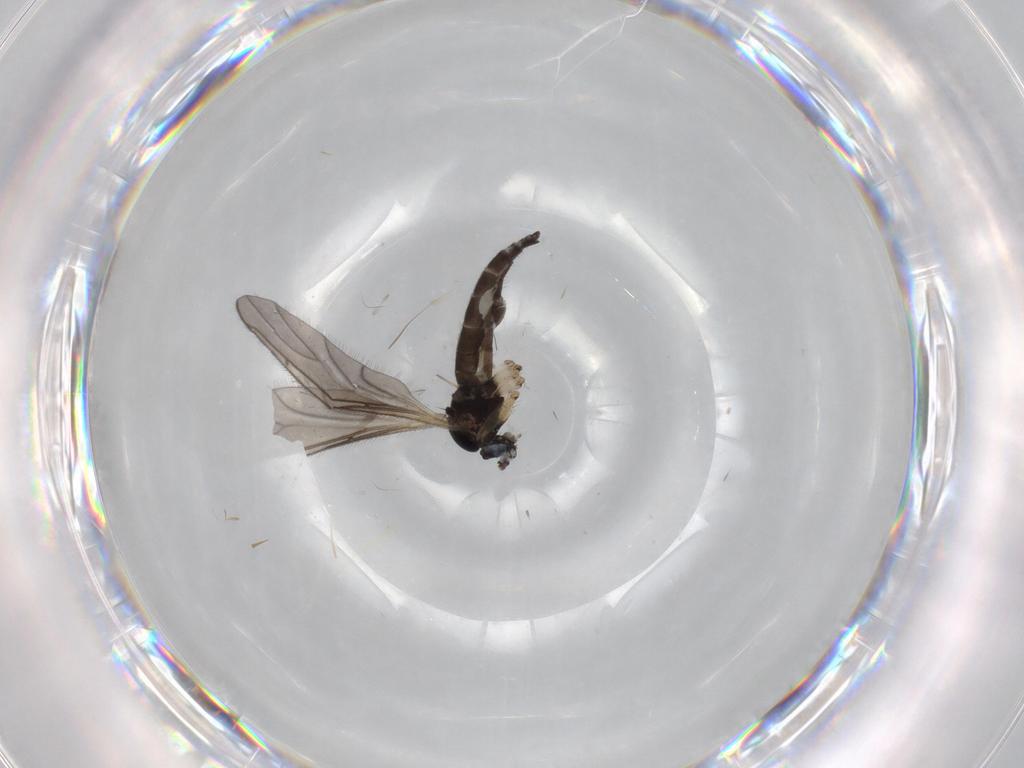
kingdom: Animalia
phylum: Arthropoda
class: Insecta
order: Diptera
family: Sciaridae
